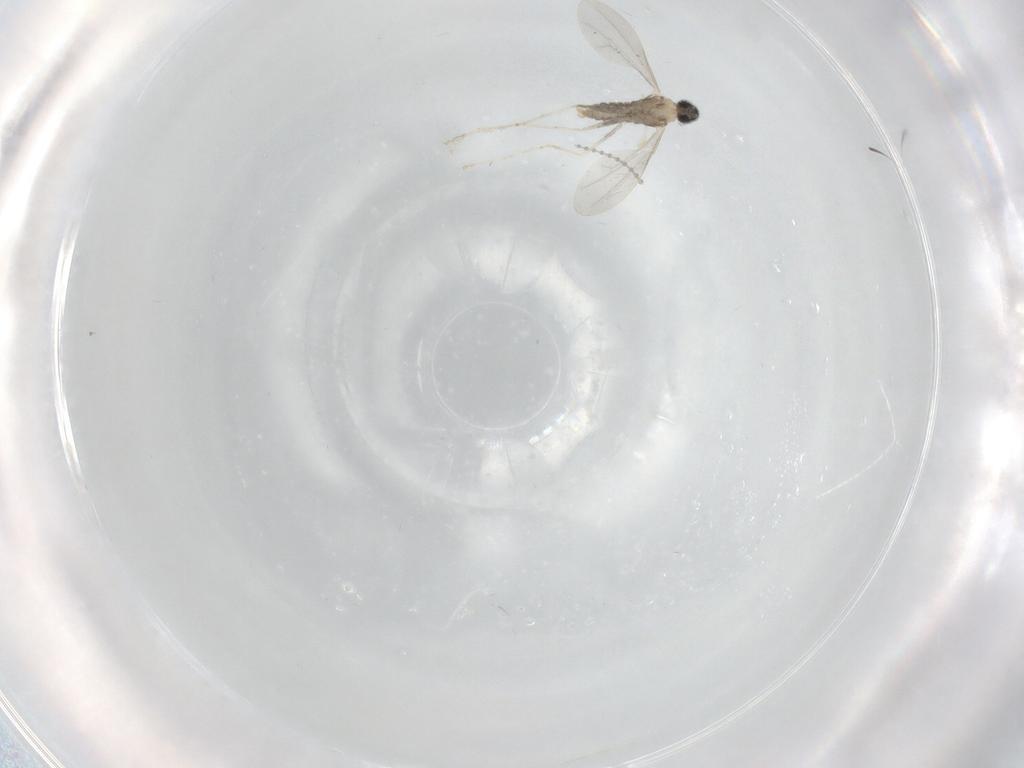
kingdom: Animalia
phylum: Arthropoda
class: Insecta
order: Diptera
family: Cecidomyiidae
